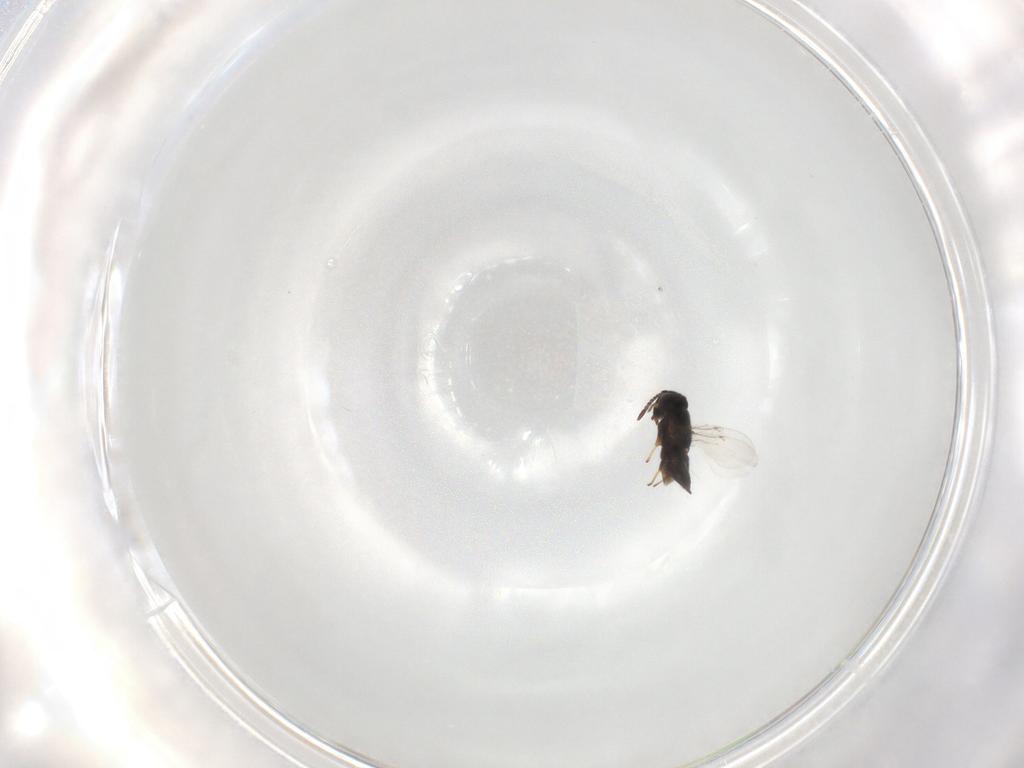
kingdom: Animalia
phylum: Arthropoda
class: Insecta
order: Hymenoptera
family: Encyrtidae
